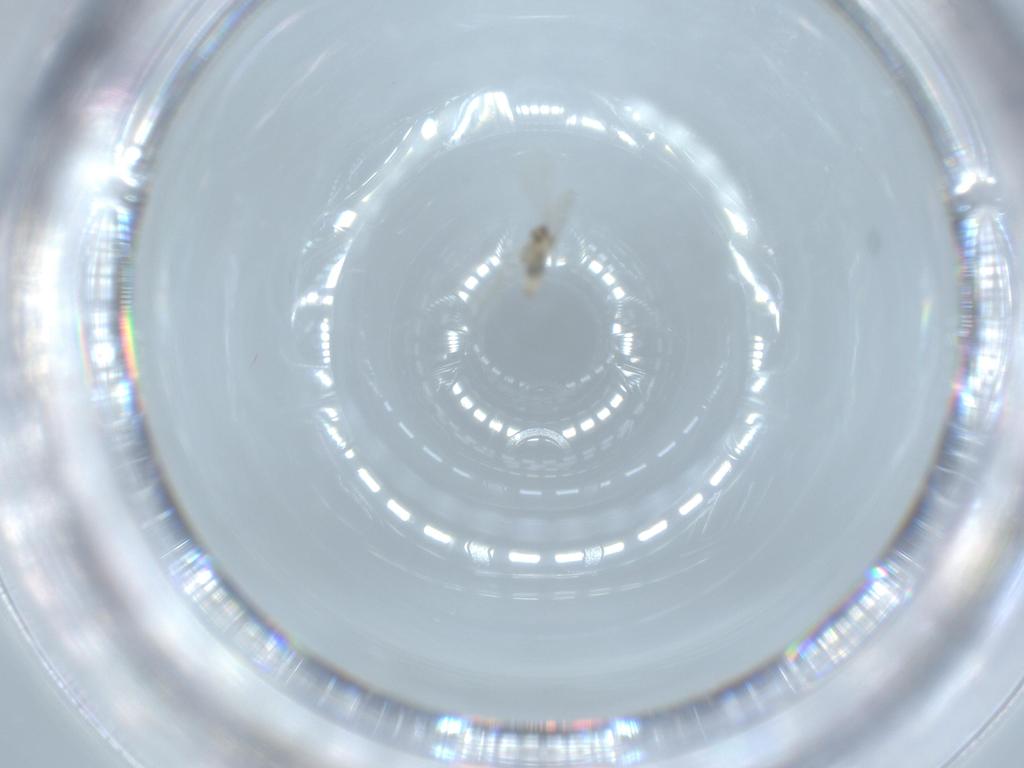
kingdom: Animalia
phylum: Arthropoda
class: Insecta
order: Diptera
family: Cecidomyiidae
